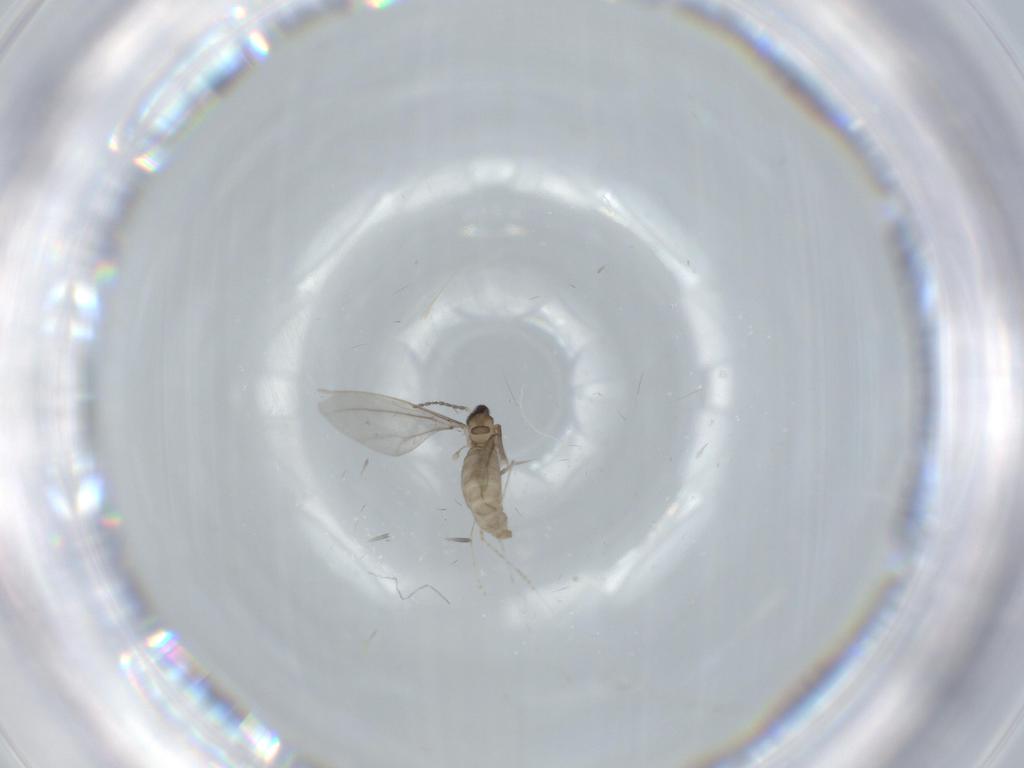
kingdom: Animalia
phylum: Arthropoda
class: Insecta
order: Diptera
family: Cecidomyiidae
